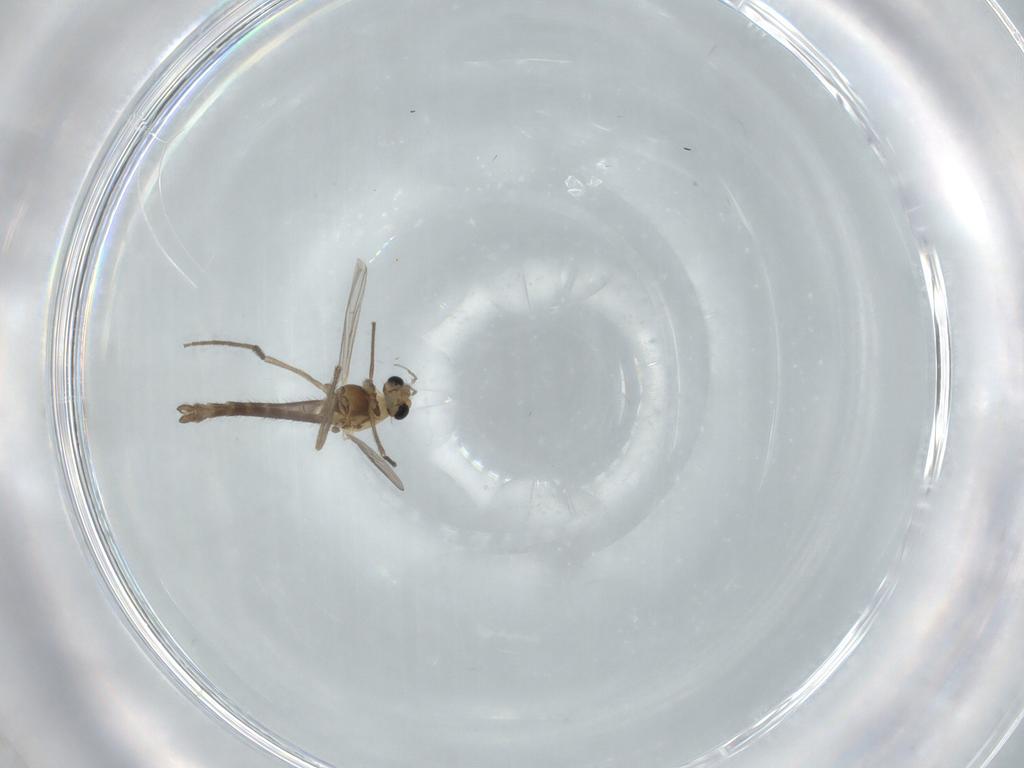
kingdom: Animalia
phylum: Arthropoda
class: Insecta
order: Diptera
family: Chironomidae
